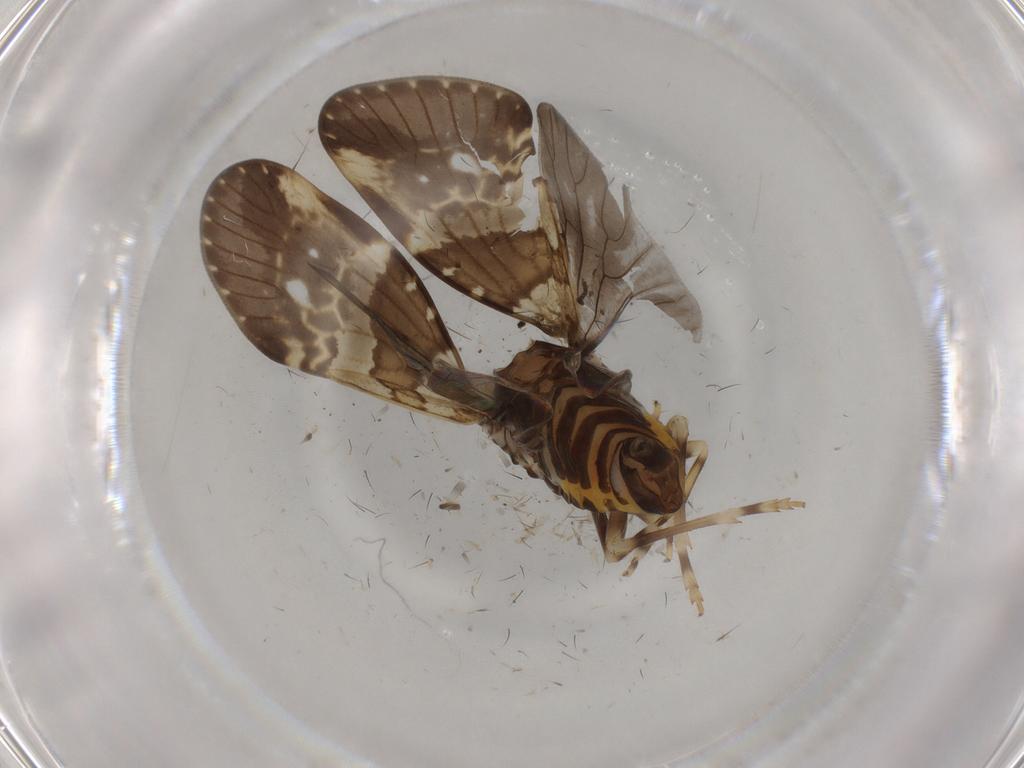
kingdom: Animalia
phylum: Arthropoda
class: Insecta
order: Hemiptera
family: Cixiidae
